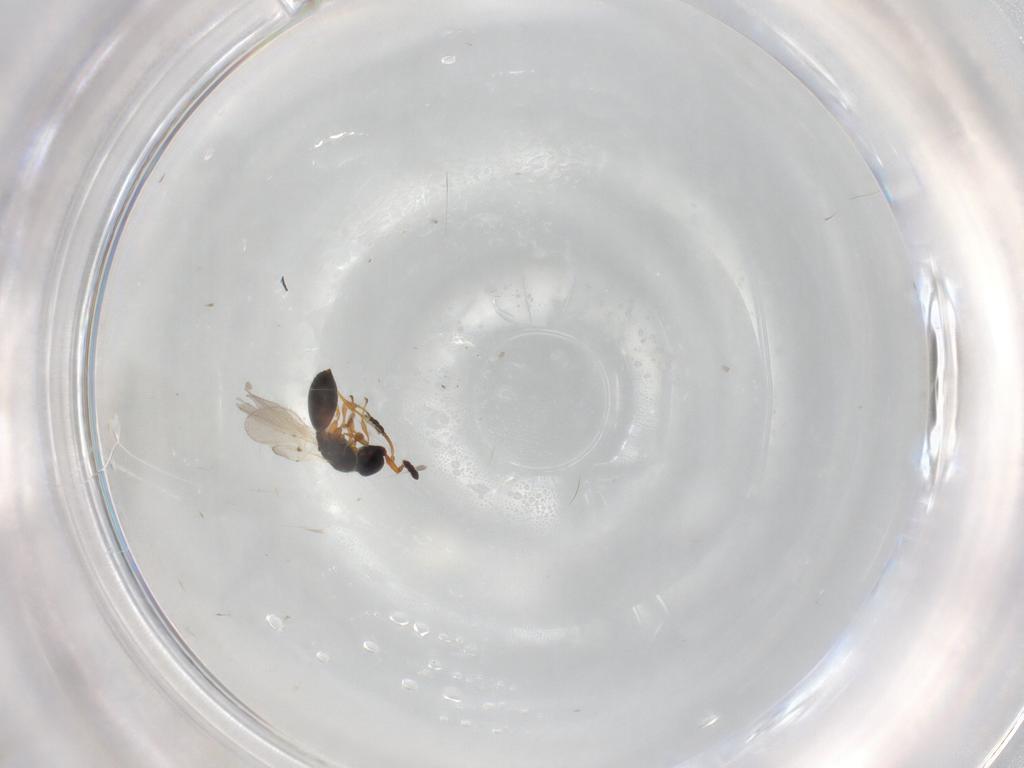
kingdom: Animalia
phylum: Arthropoda
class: Insecta
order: Hymenoptera
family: Diapriidae
